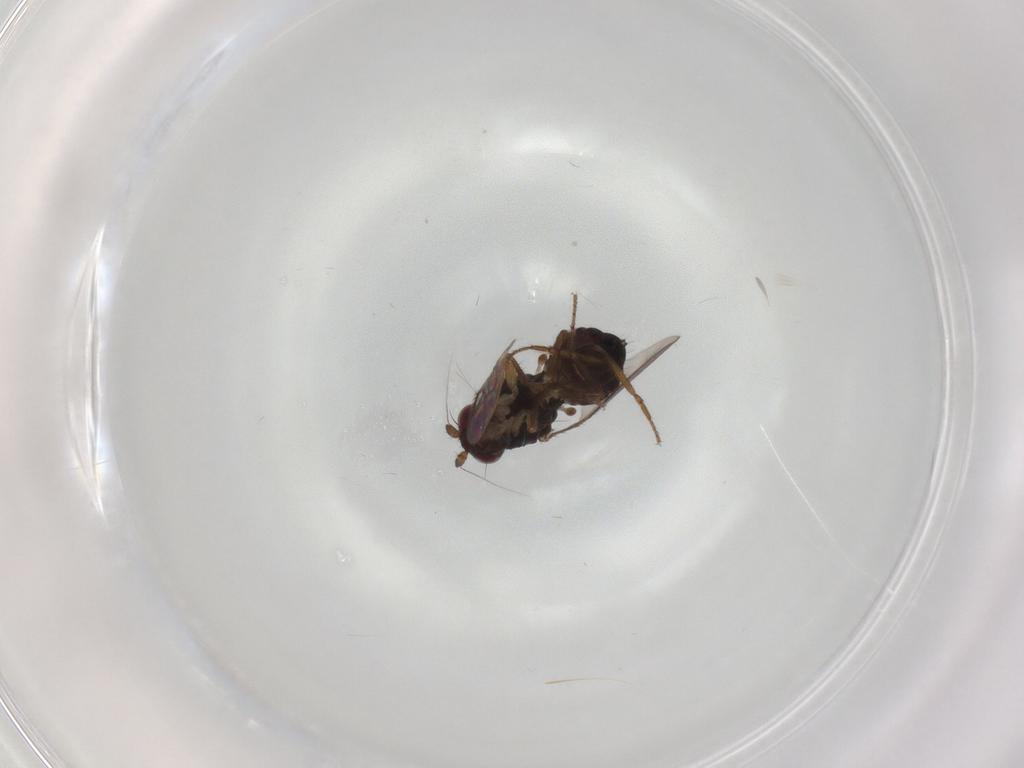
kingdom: Animalia
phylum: Arthropoda
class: Insecta
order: Diptera
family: Sphaeroceridae
